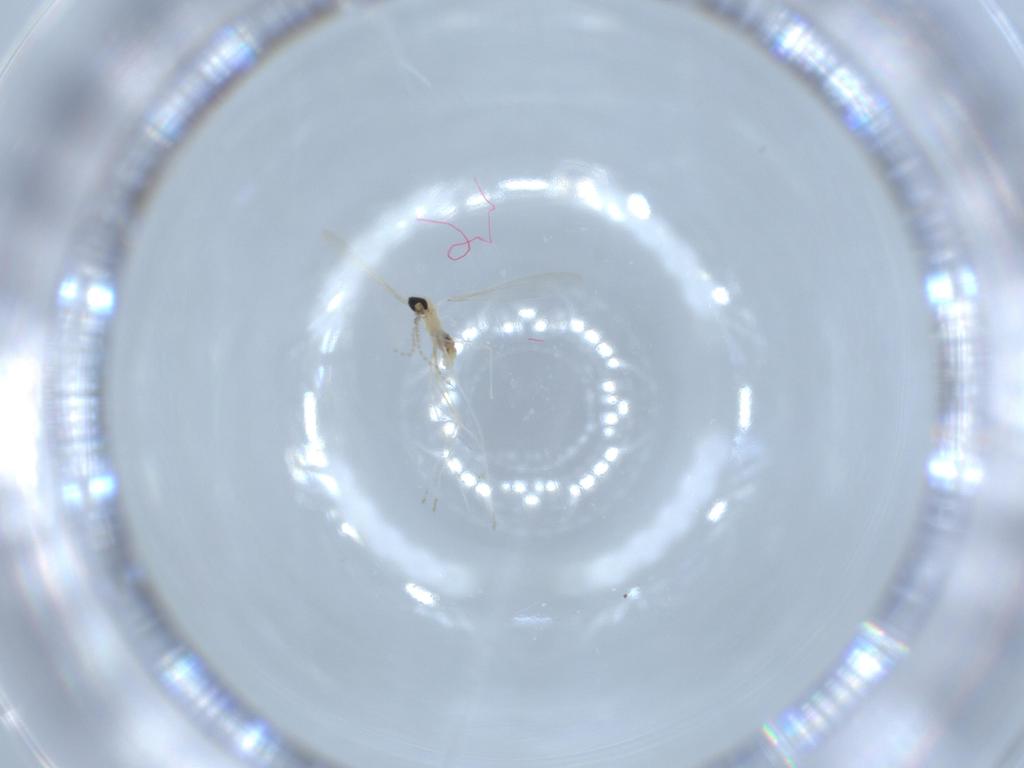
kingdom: Animalia
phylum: Arthropoda
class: Insecta
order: Diptera
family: Cecidomyiidae
